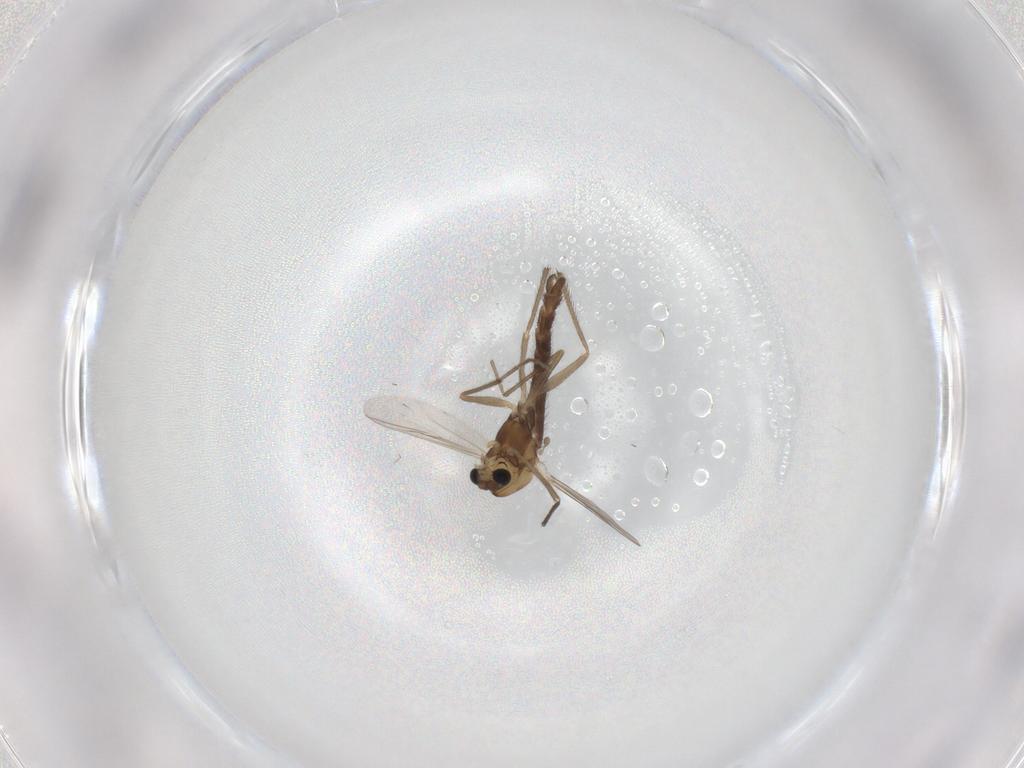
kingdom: Animalia
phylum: Arthropoda
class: Insecta
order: Diptera
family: Chironomidae
